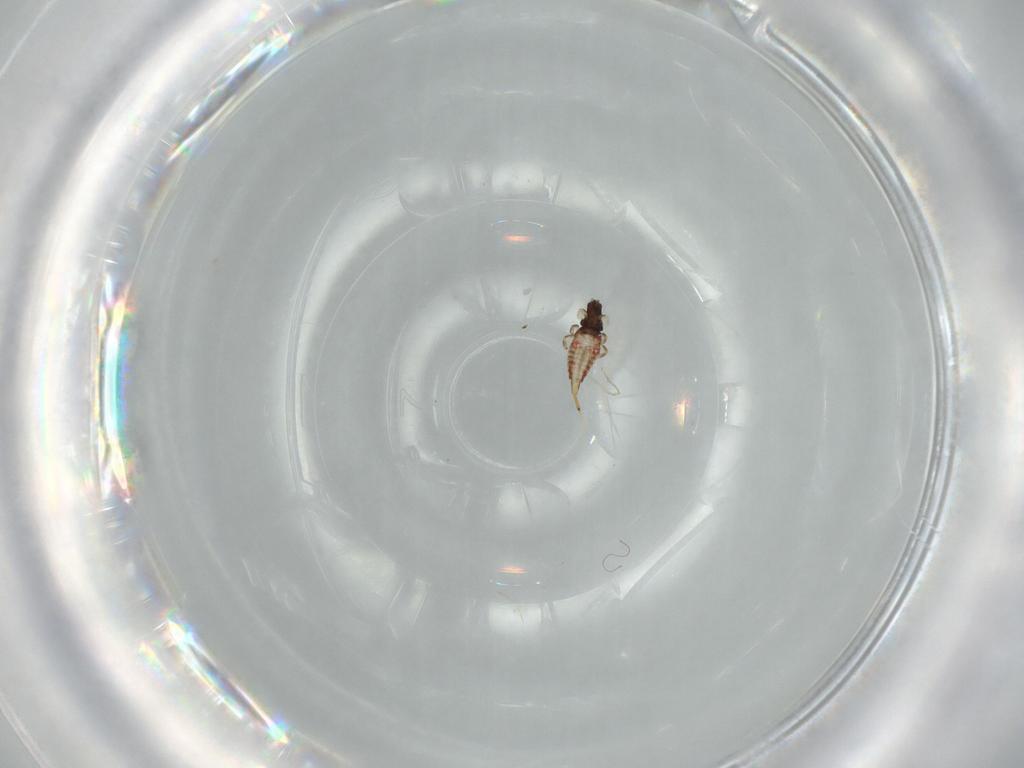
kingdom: Animalia
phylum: Arthropoda
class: Insecta
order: Thysanoptera
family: Phlaeothripidae
